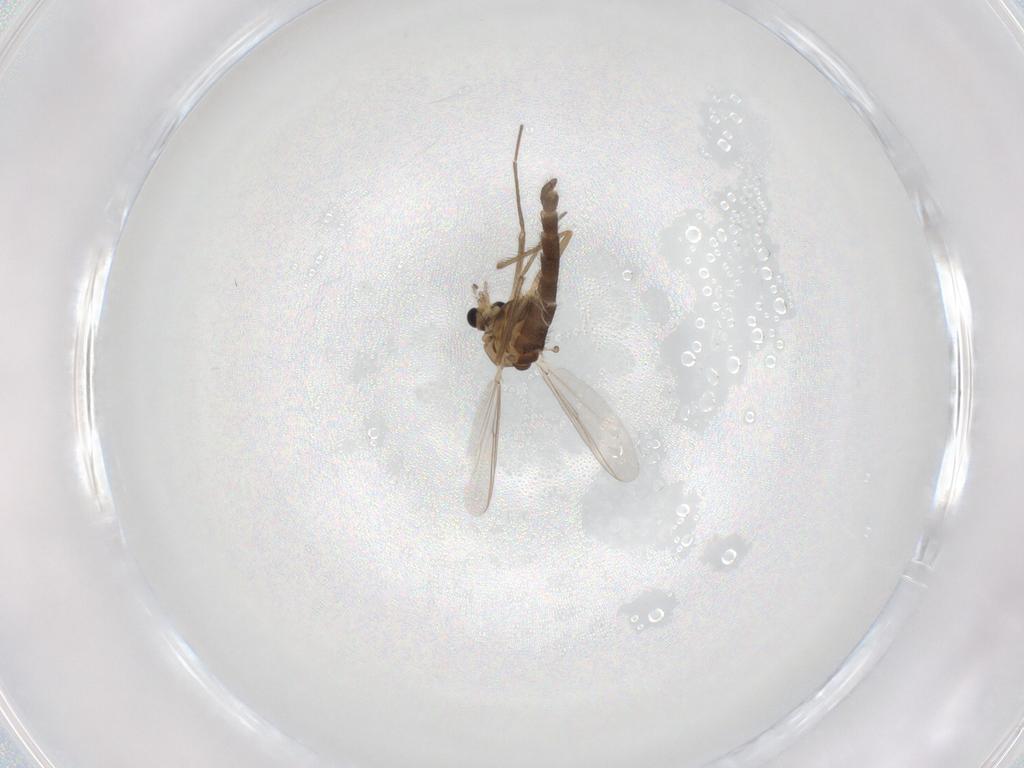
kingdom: Animalia
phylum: Arthropoda
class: Insecta
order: Diptera
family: Chironomidae
